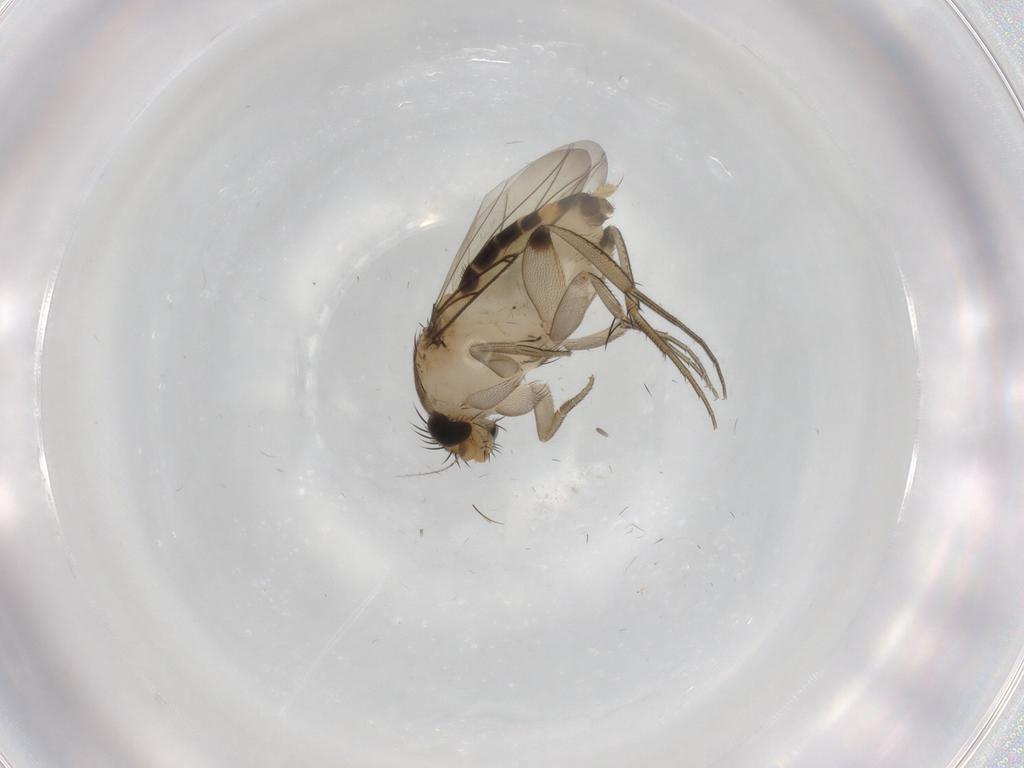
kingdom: Animalia
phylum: Arthropoda
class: Insecta
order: Diptera
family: Phoridae
